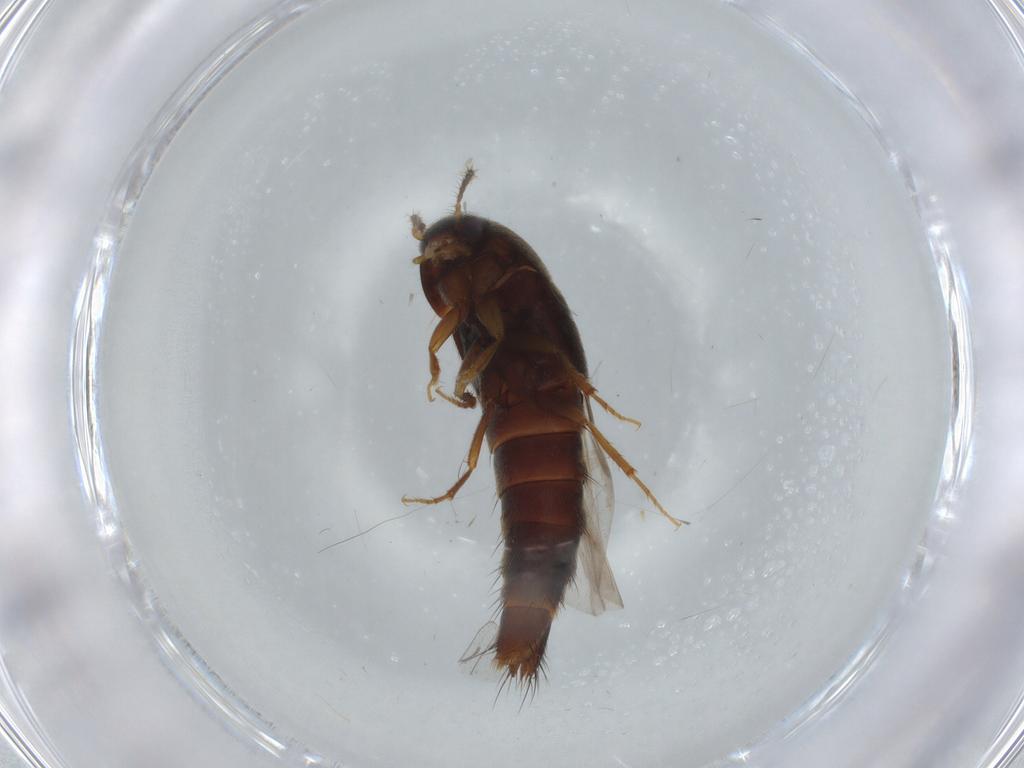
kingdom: Animalia
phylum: Arthropoda
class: Insecta
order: Coleoptera
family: Staphylinidae
